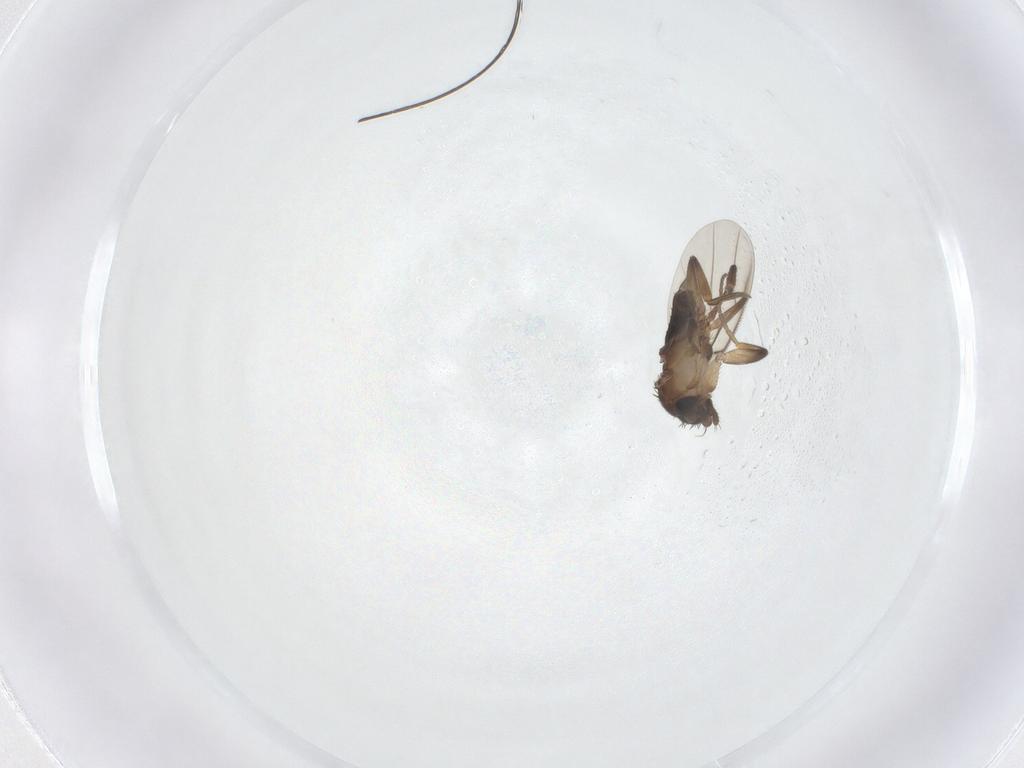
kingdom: Animalia
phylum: Arthropoda
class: Insecta
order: Diptera
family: Phoridae
